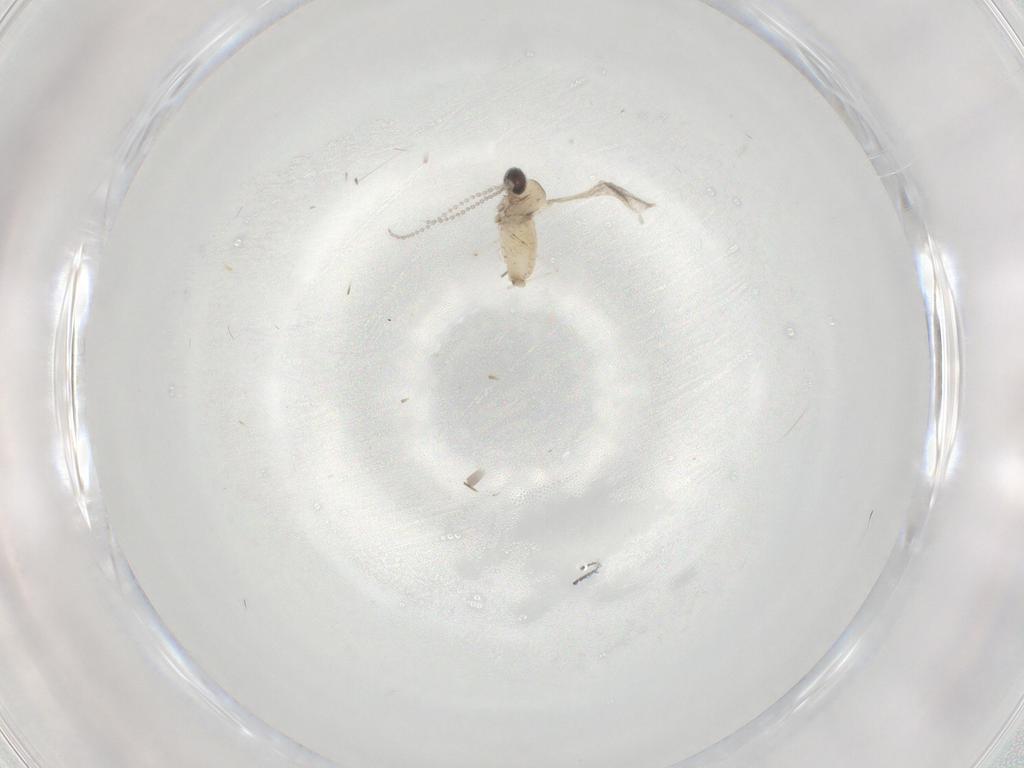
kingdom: Animalia
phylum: Arthropoda
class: Insecta
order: Diptera
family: Cecidomyiidae
